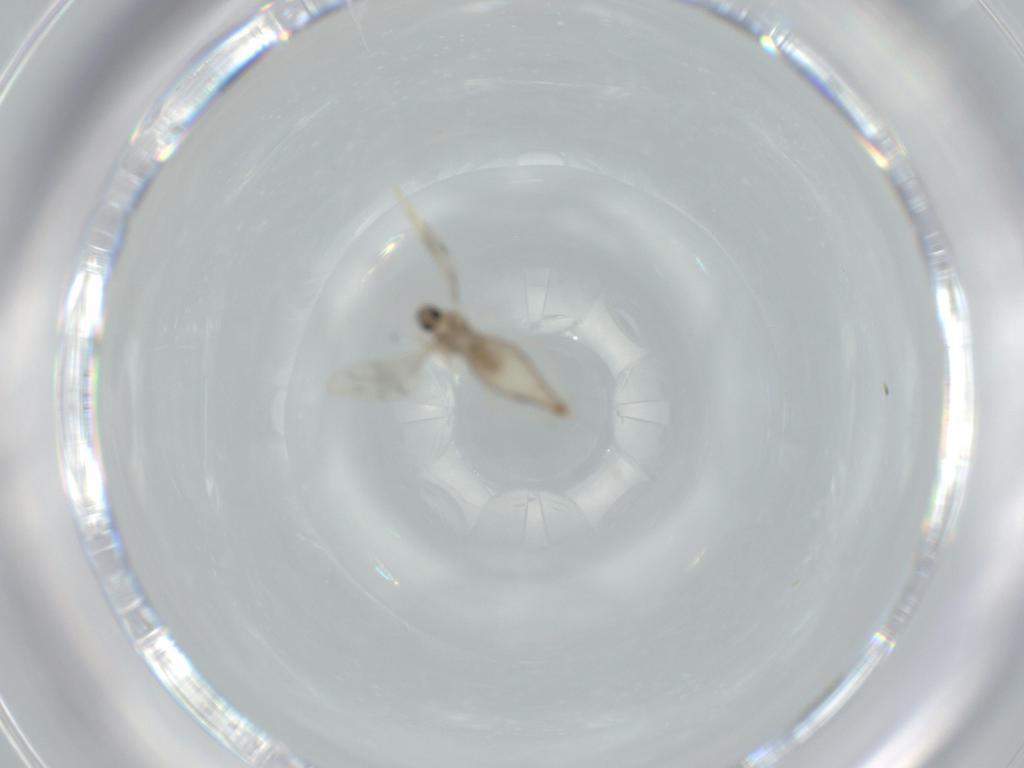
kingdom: Animalia
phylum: Arthropoda
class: Insecta
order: Diptera
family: Cecidomyiidae
